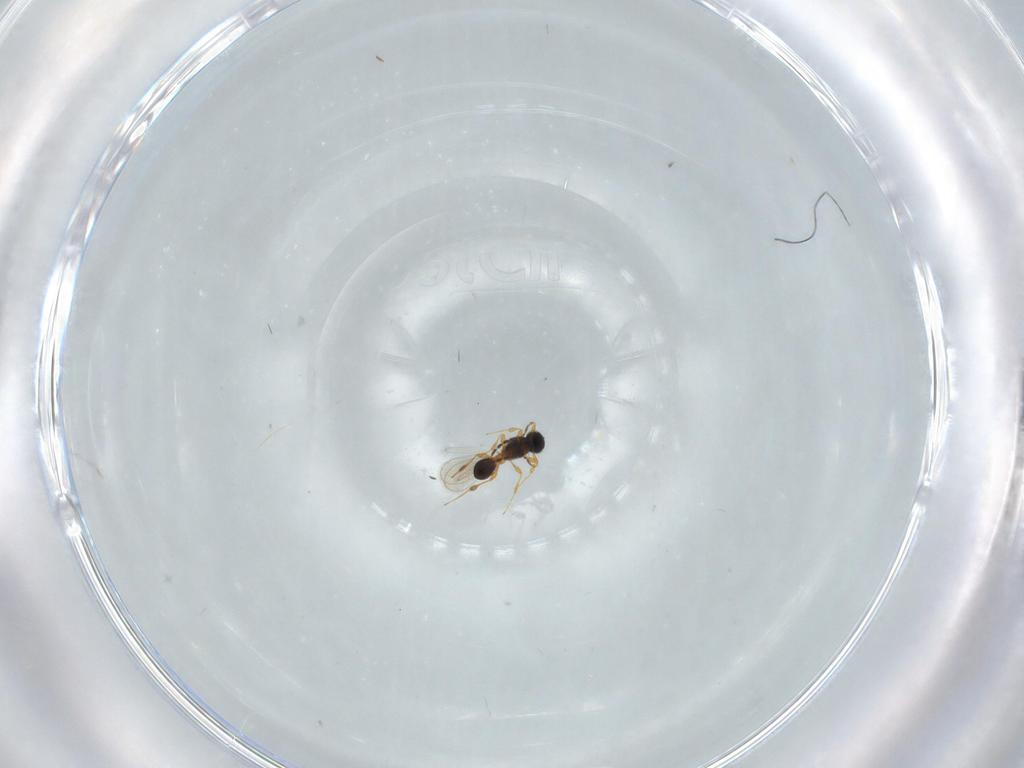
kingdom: Animalia
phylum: Arthropoda
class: Insecta
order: Hymenoptera
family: Platygastridae
